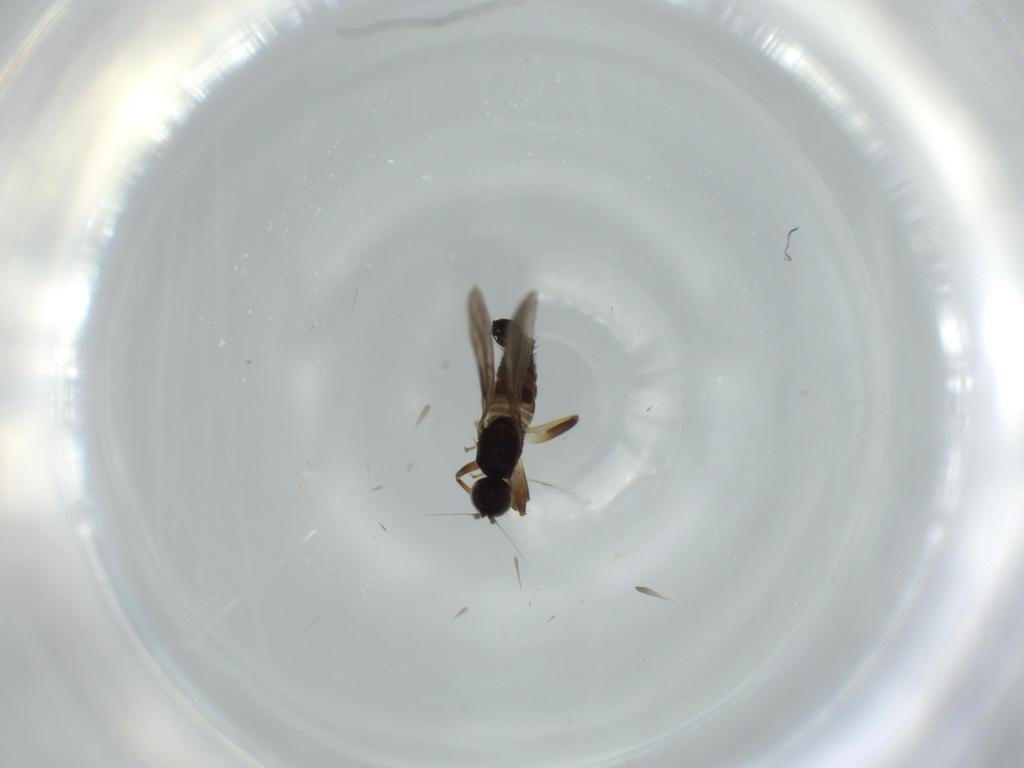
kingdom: Animalia
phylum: Arthropoda
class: Insecta
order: Diptera
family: Hybotidae
